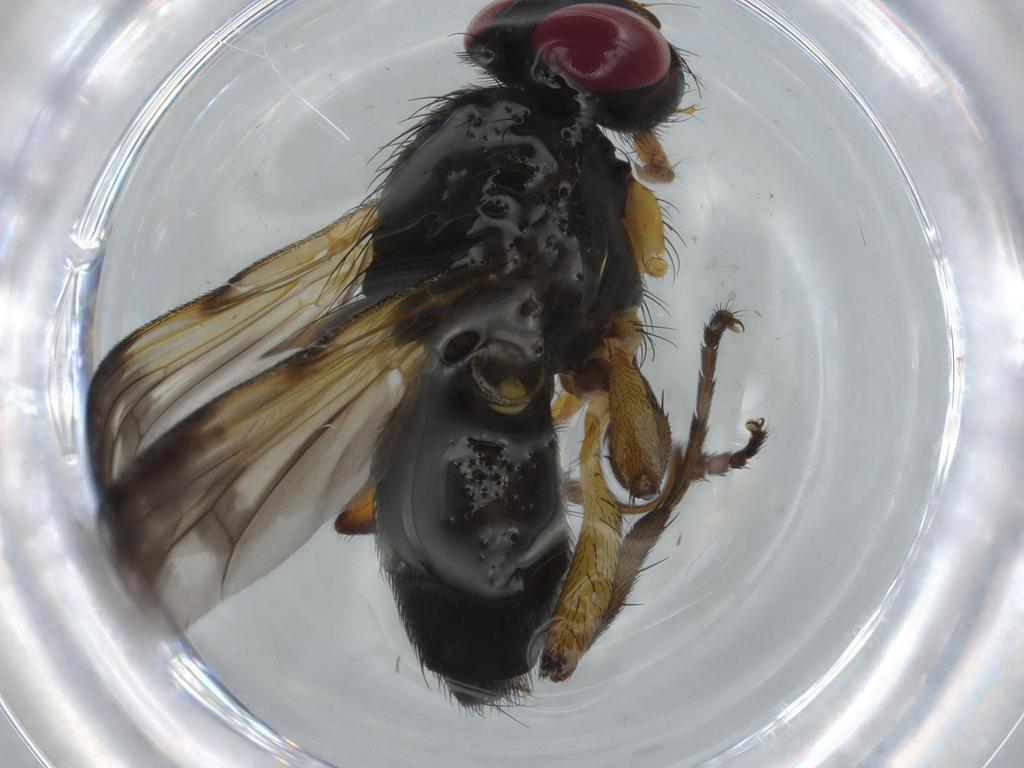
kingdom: Animalia
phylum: Arthropoda
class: Insecta
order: Diptera
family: Calliphoridae
